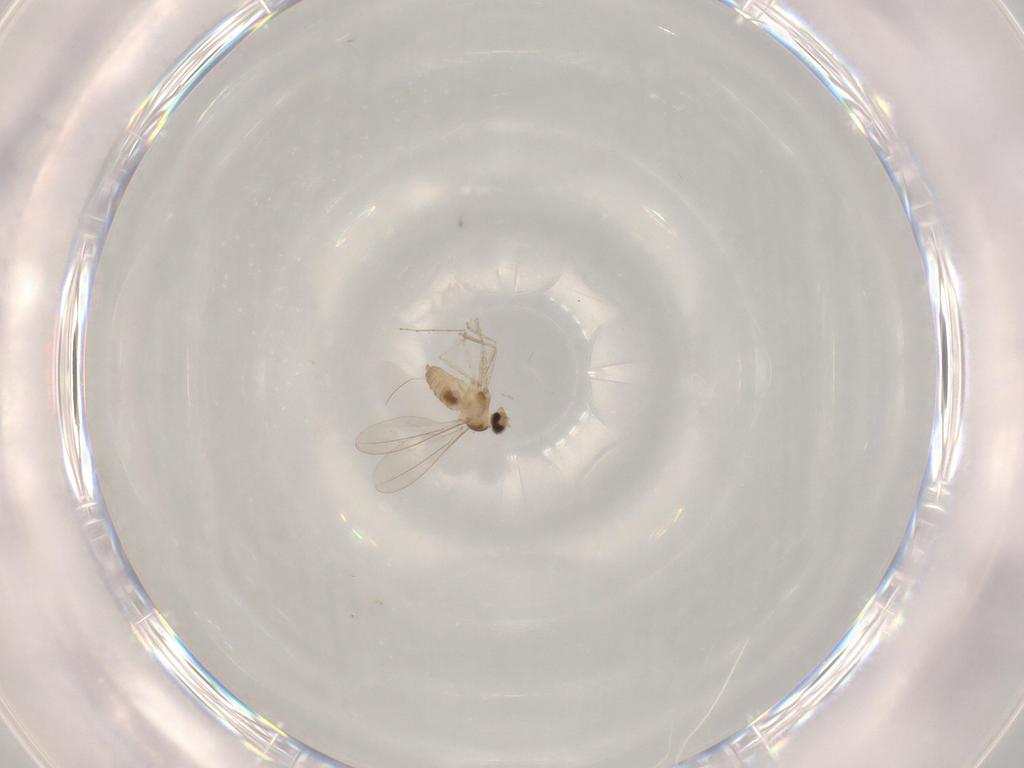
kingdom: Animalia
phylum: Arthropoda
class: Insecta
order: Diptera
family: Cecidomyiidae
